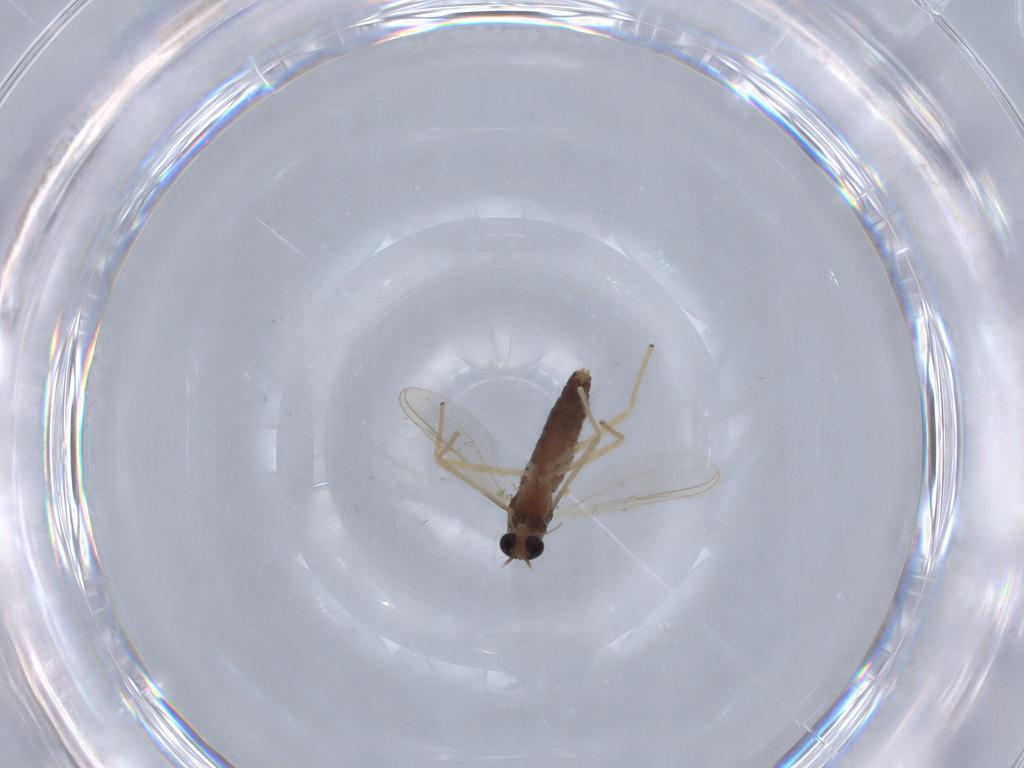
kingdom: Animalia
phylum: Arthropoda
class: Insecta
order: Diptera
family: Chironomidae
